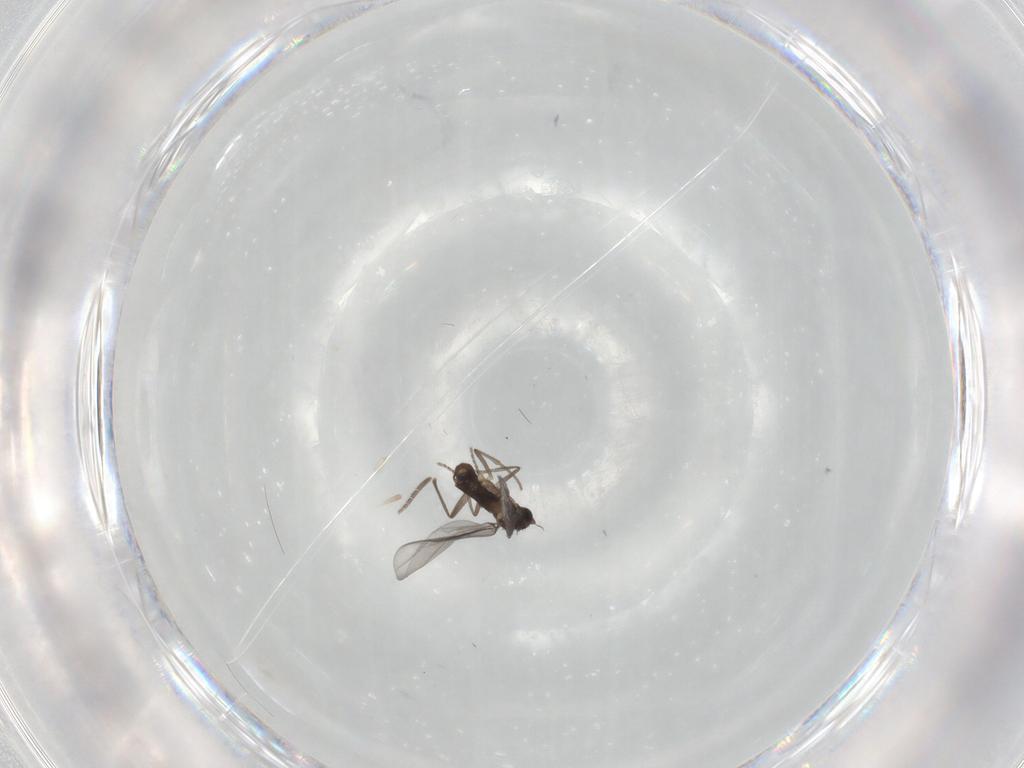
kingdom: Animalia
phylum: Arthropoda
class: Insecta
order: Diptera
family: Cecidomyiidae
